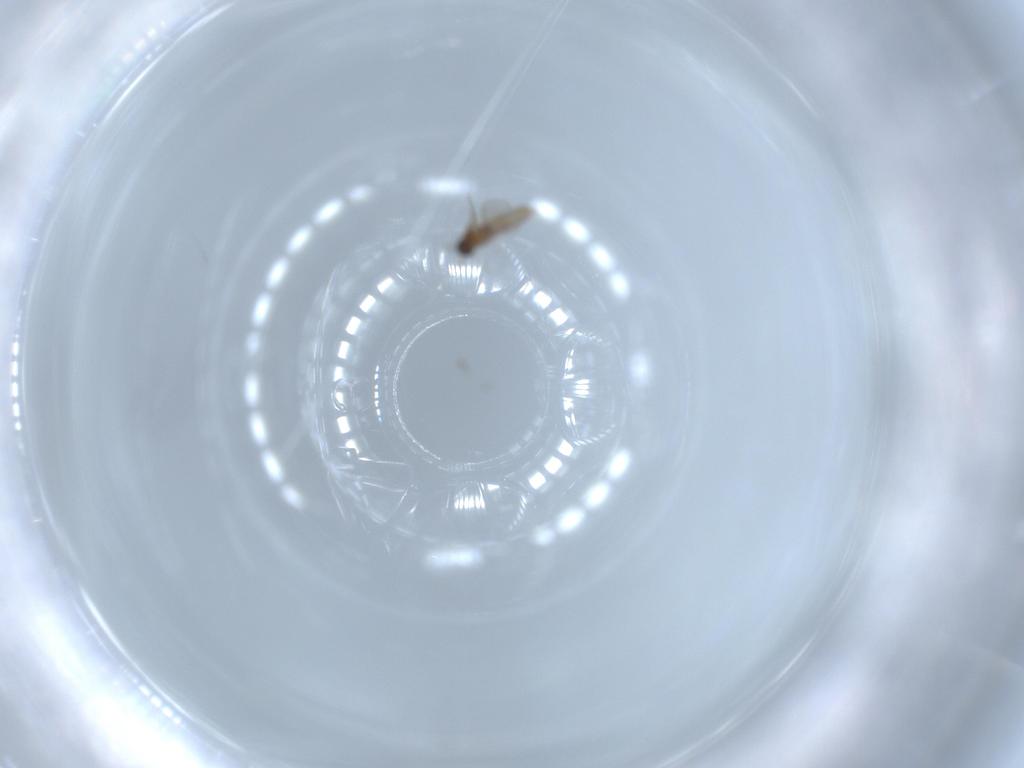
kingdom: Animalia
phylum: Arthropoda
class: Insecta
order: Diptera
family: Cecidomyiidae
